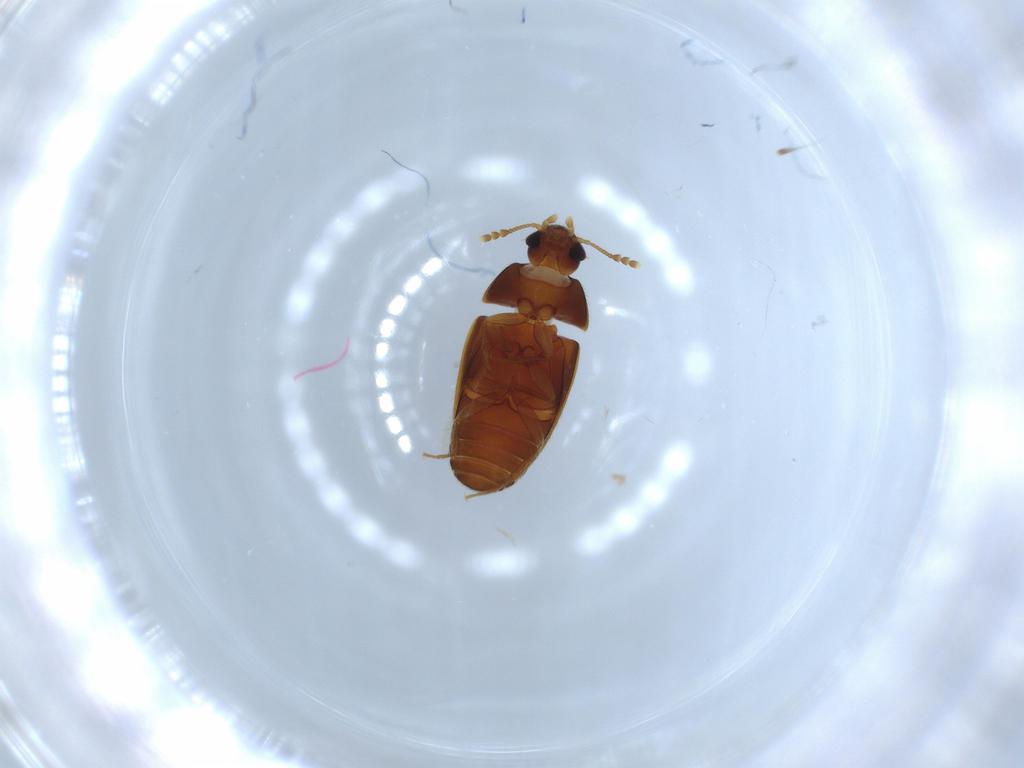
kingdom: Animalia
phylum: Arthropoda
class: Insecta
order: Coleoptera
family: Mycetophagidae
